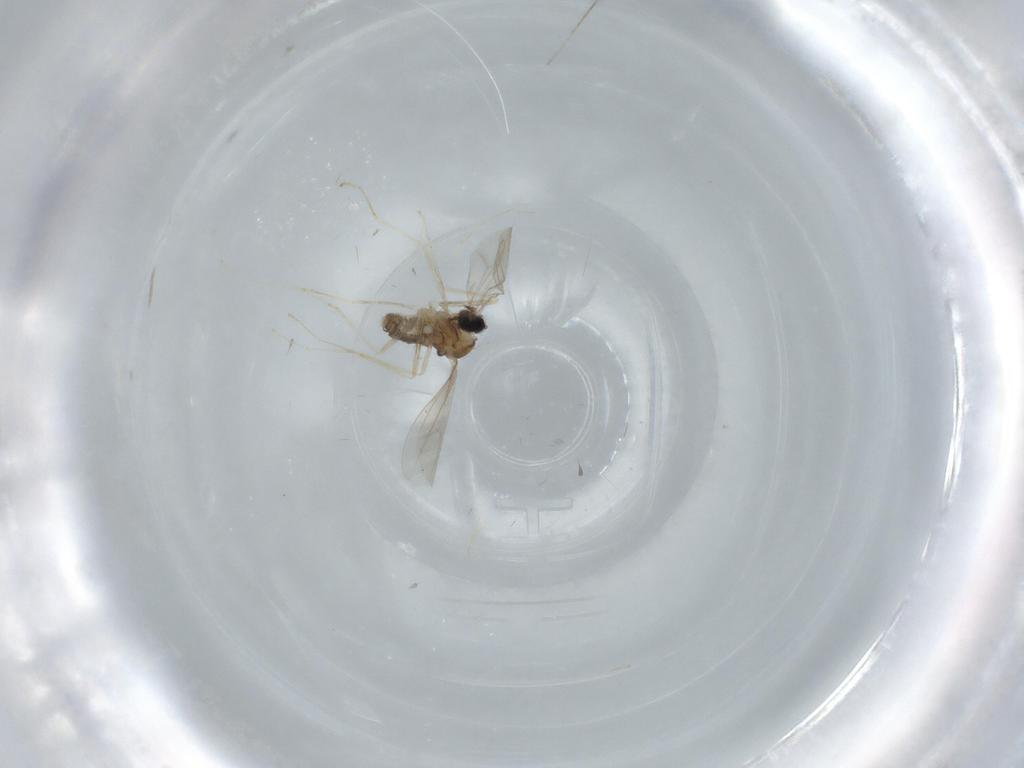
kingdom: Animalia
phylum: Arthropoda
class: Insecta
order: Diptera
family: Cecidomyiidae
